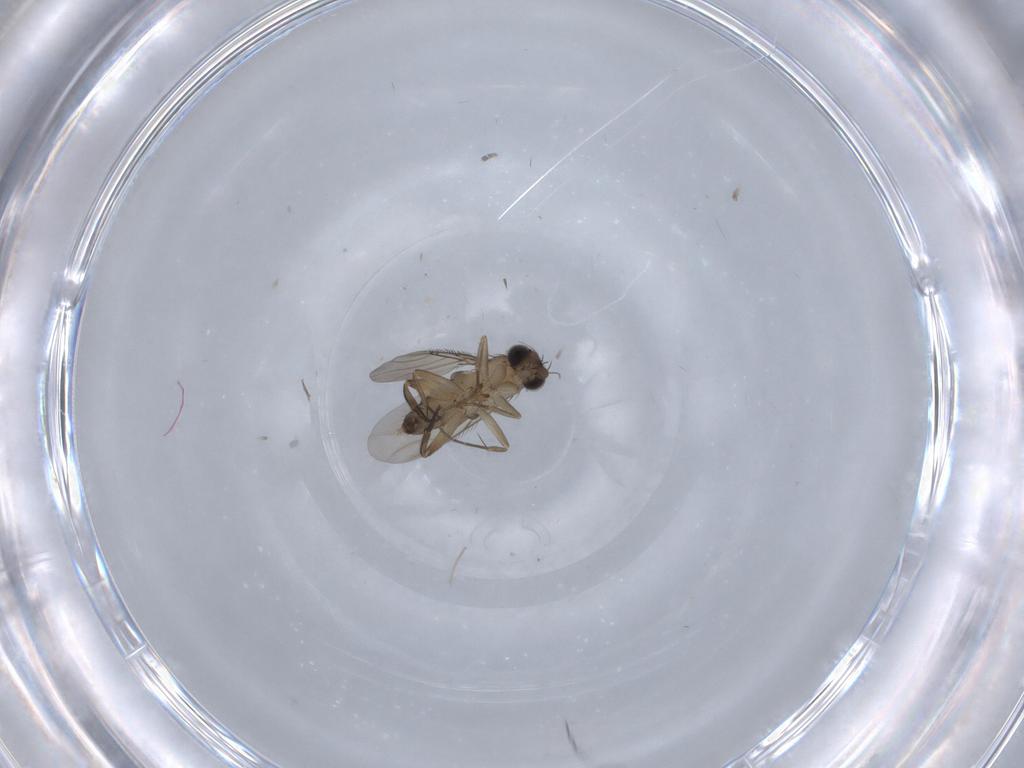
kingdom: Animalia
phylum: Arthropoda
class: Insecta
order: Diptera
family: Phoridae
